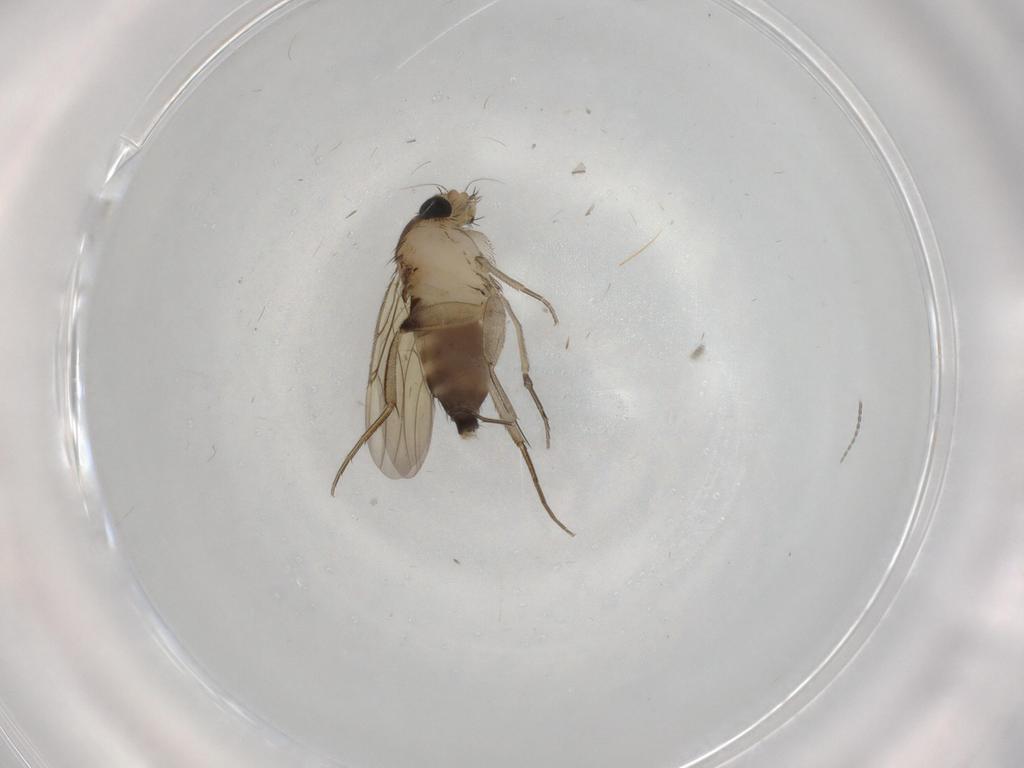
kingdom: Animalia
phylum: Arthropoda
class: Insecta
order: Diptera
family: Phoridae
